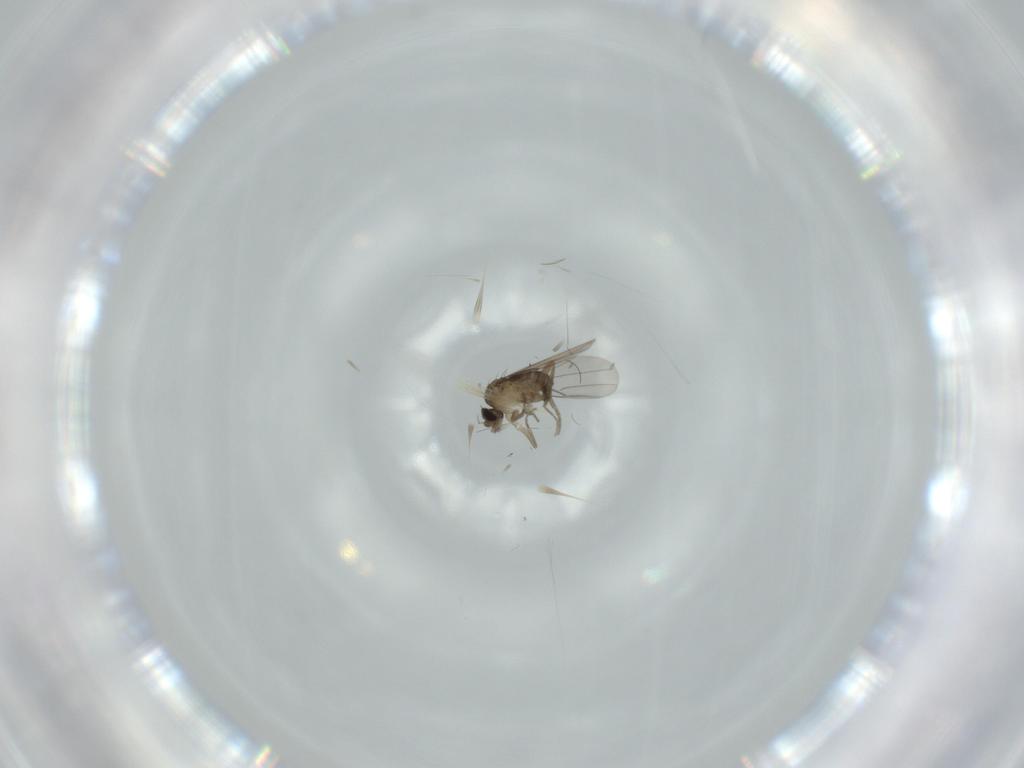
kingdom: Animalia
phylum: Arthropoda
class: Insecta
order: Diptera
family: Phoridae
